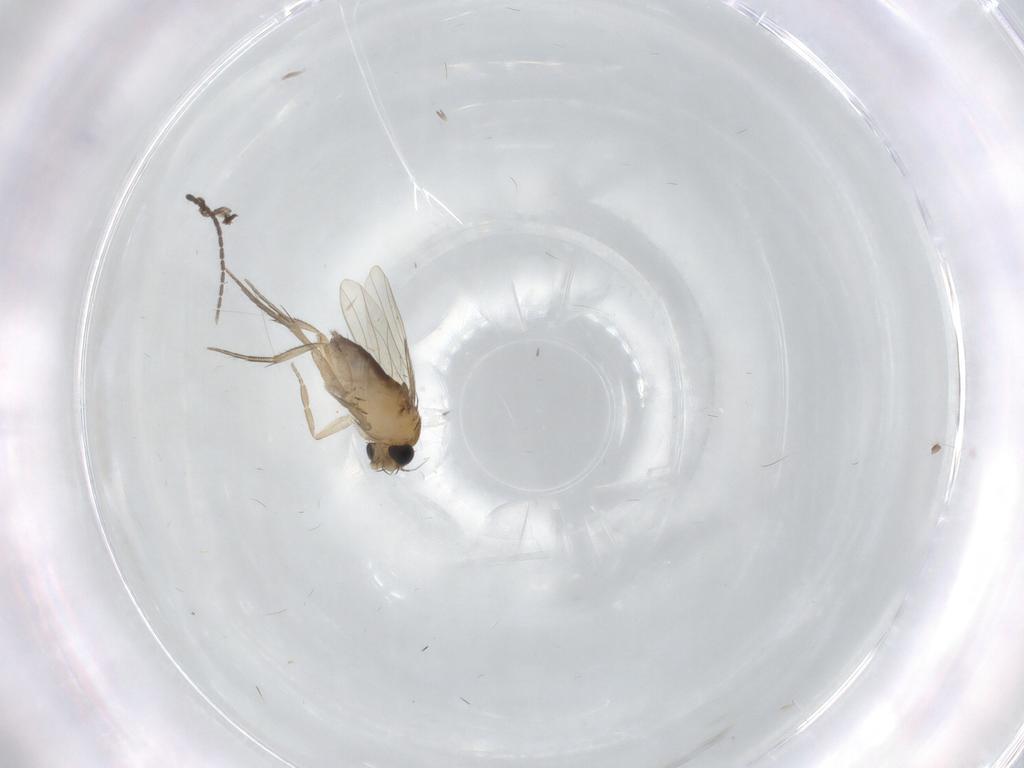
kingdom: Animalia
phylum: Arthropoda
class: Insecta
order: Diptera
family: Phoridae
